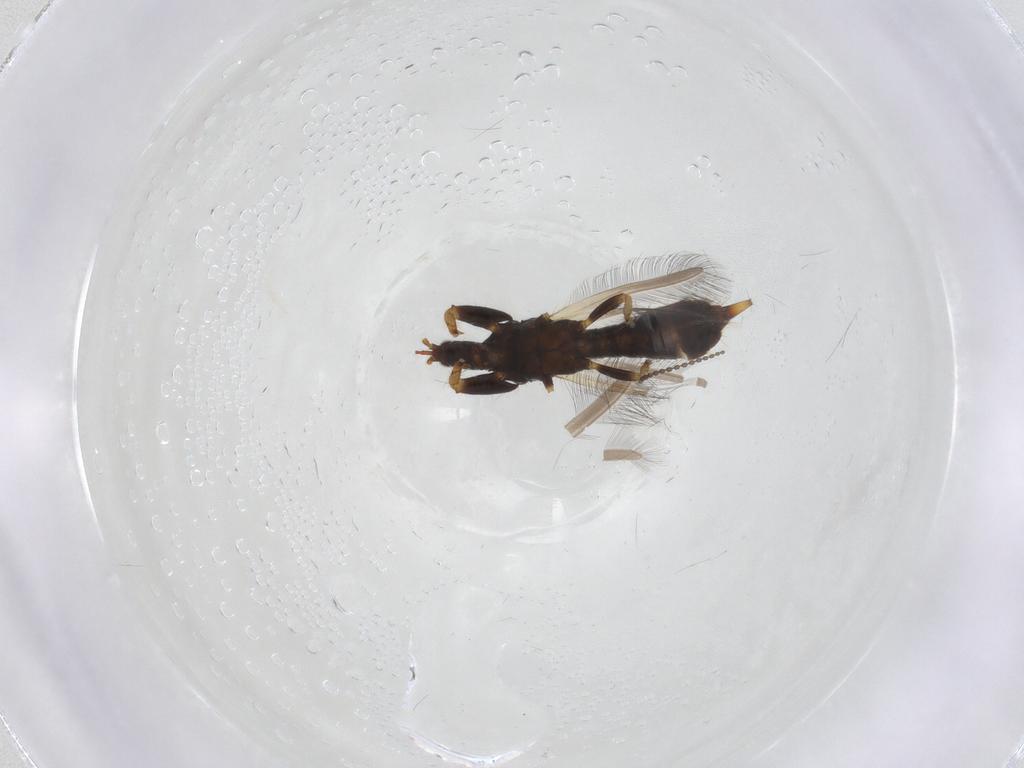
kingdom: Animalia
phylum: Arthropoda
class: Insecta
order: Thysanoptera
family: Phlaeothripidae
